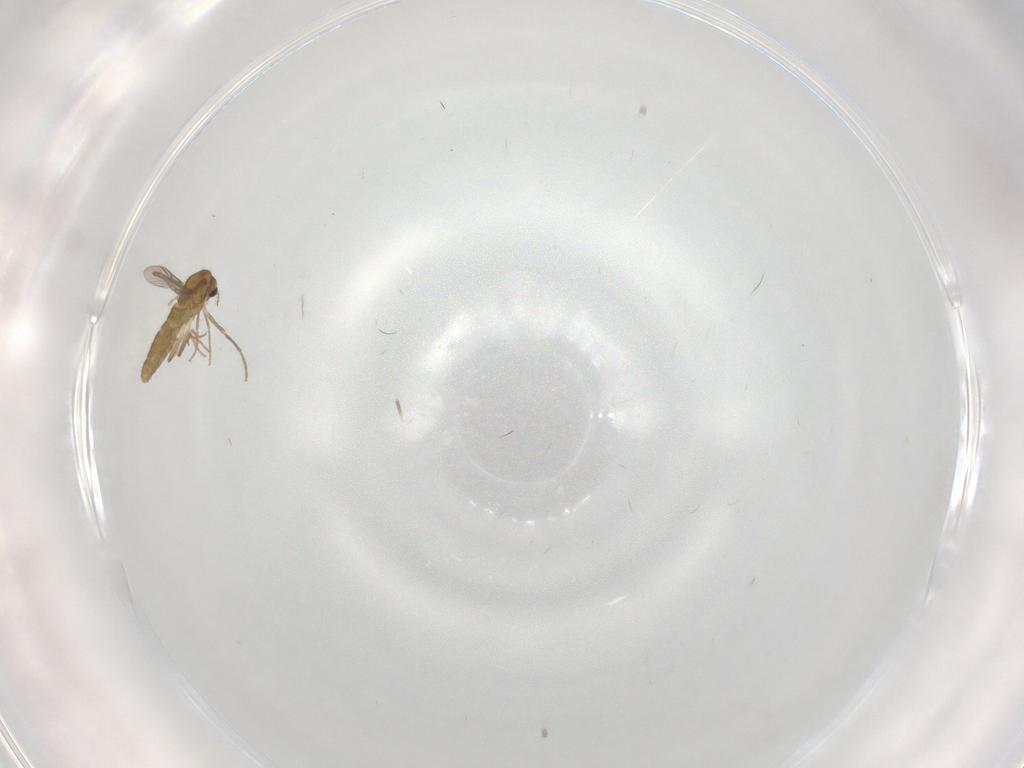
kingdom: Animalia
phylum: Arthropoda
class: Insecta
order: Diptera
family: Chironomidae
